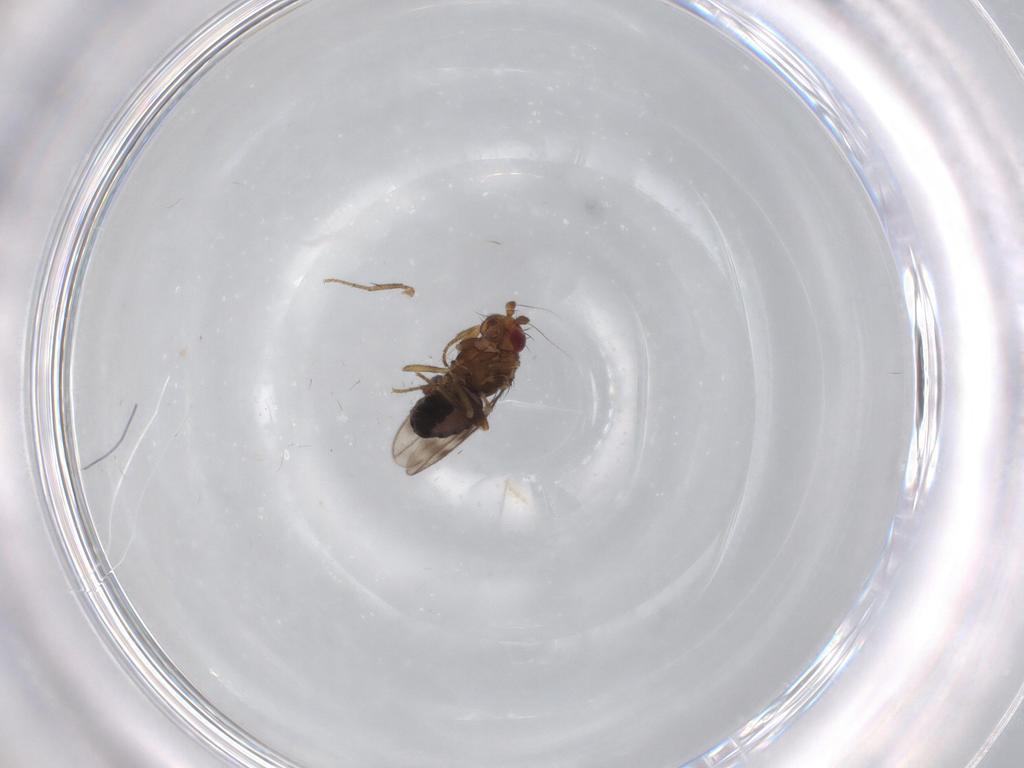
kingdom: Animalia
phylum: Arthropoda
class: Insecta
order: Diptera
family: Sphaeroceridae
